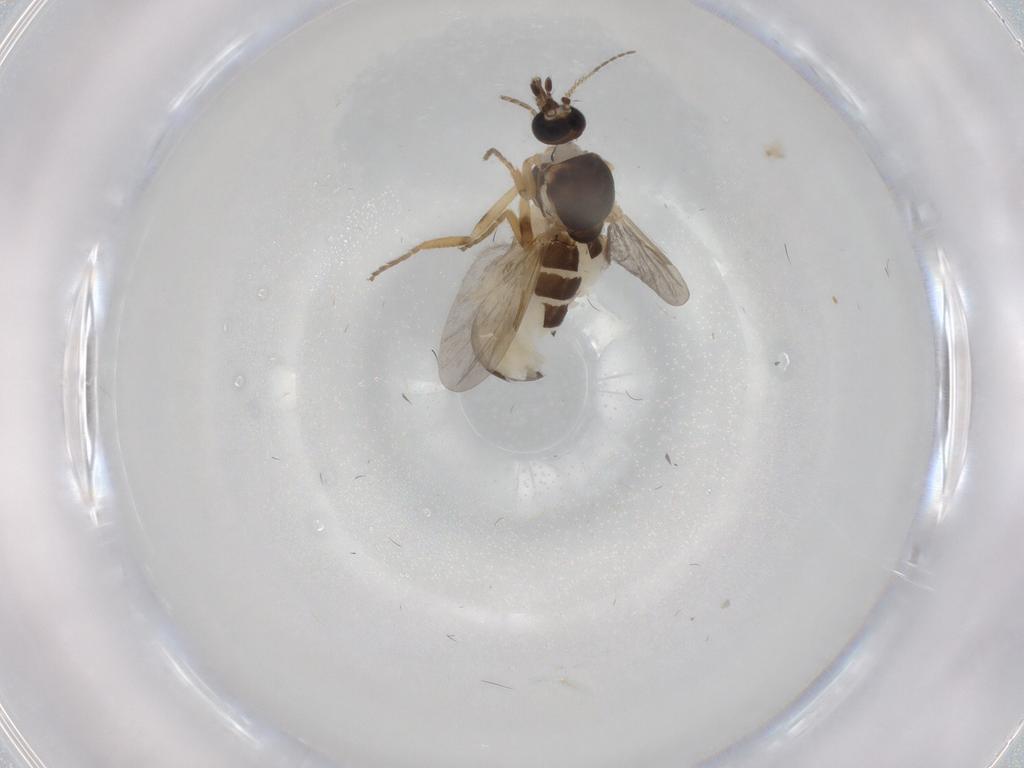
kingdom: Animalia
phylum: Arthropoda
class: Insecta
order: Diptera
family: Ceratopogonidae
